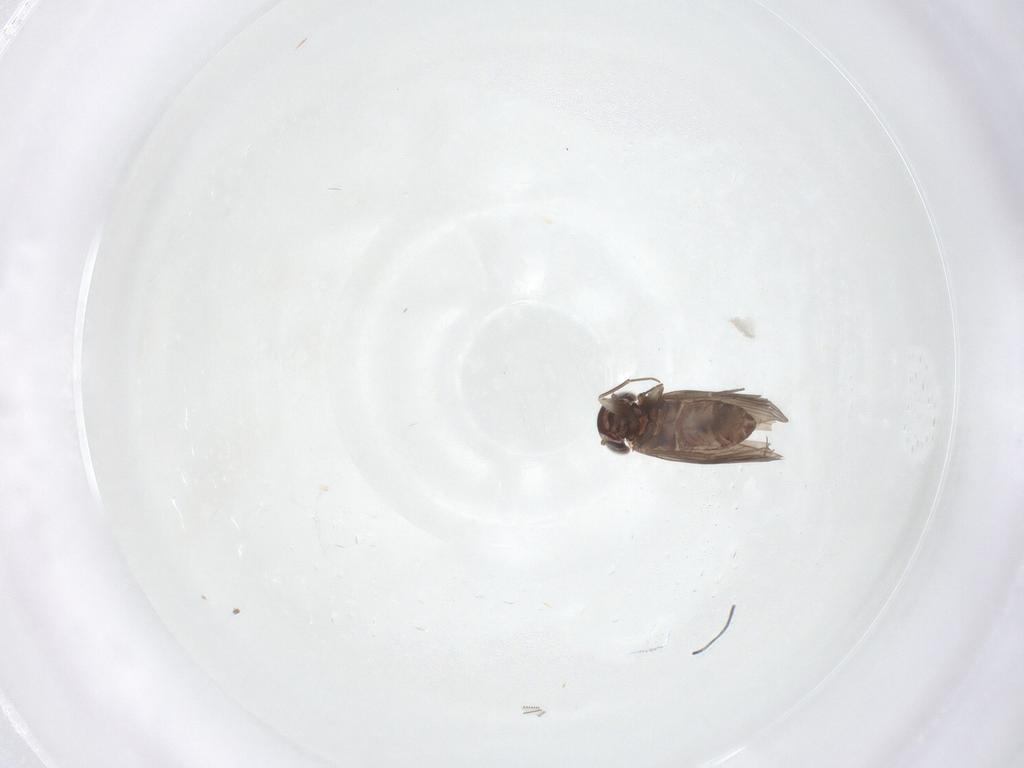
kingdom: Animalia
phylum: Arthropoda
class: Insecta
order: Psocodea
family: Amphientomidae
